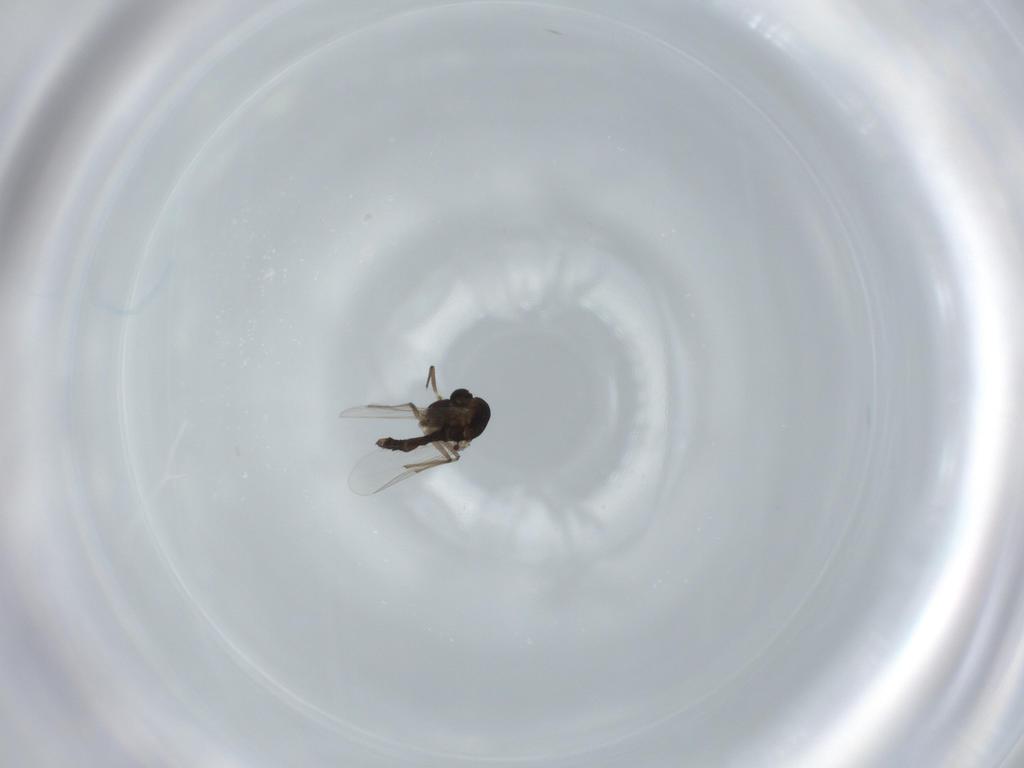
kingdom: Animalia
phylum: Arthropoda
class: Insecta
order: Diptera
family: Chironomidae
